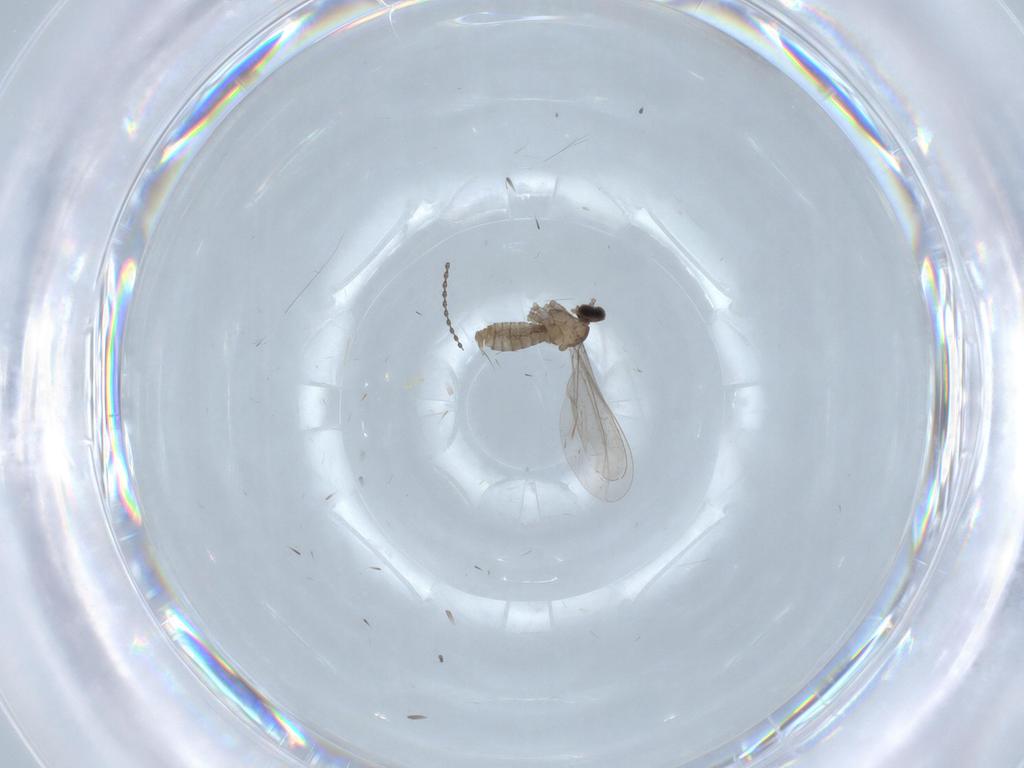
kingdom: Animalia
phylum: Arthropoda
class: Insecta
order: Diptera
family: Cecidomyiidae
